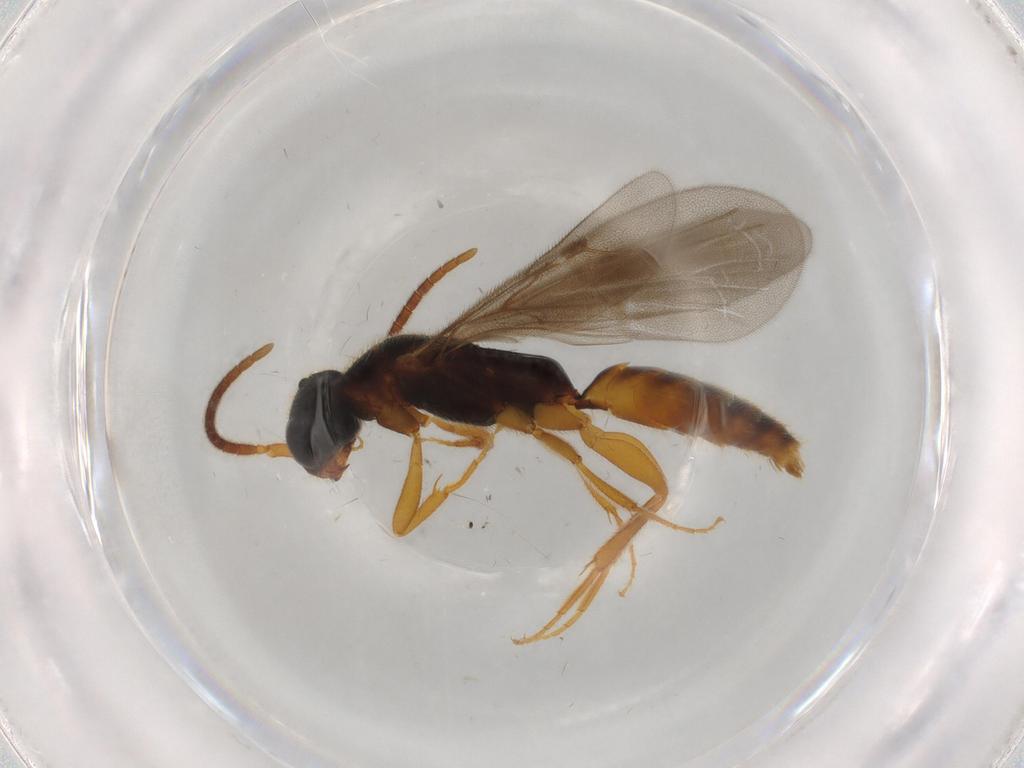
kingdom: Animalia
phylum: Arthropoda
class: Insecta
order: Hymenoptera
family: Bethylidae
